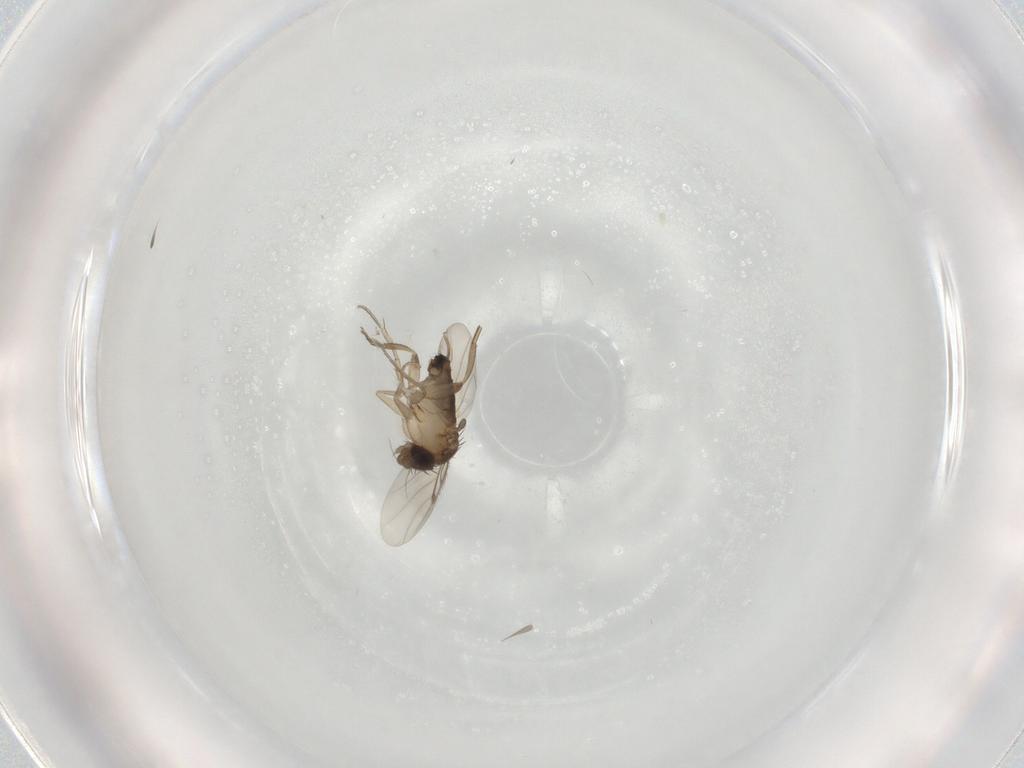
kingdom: Animalia
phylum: Arthropoda
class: Insecta
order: Diptera
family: Phoridae
